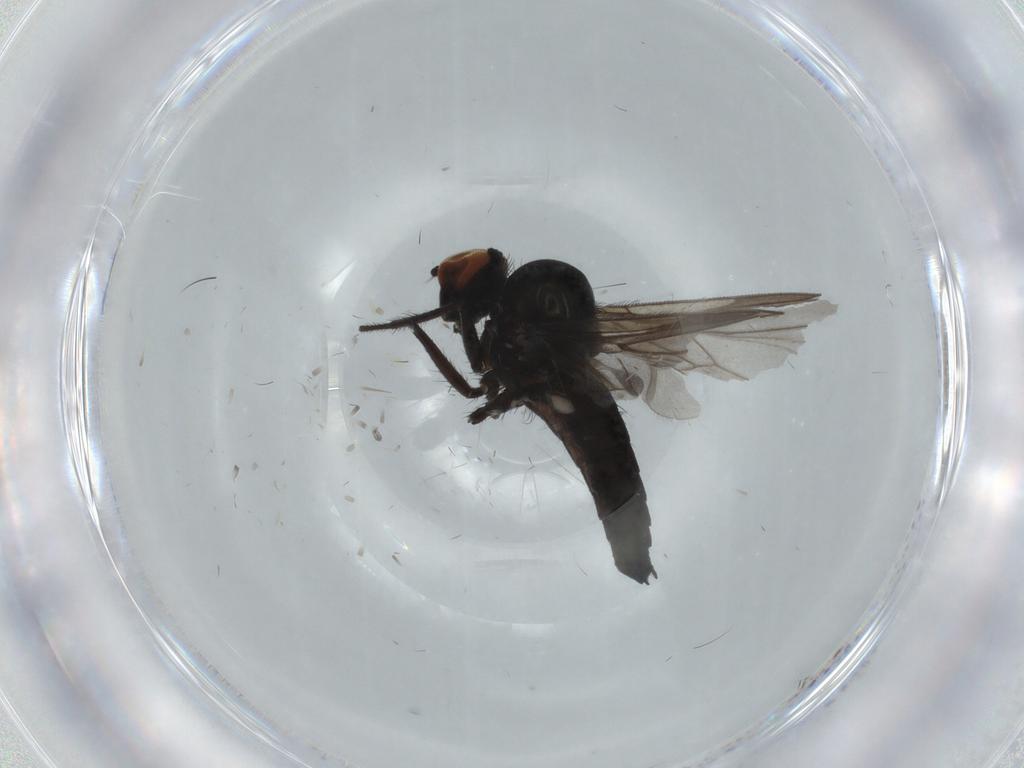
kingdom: Animalia
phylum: Arthropoda
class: Insecta
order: Diptera
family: Hybotidae
